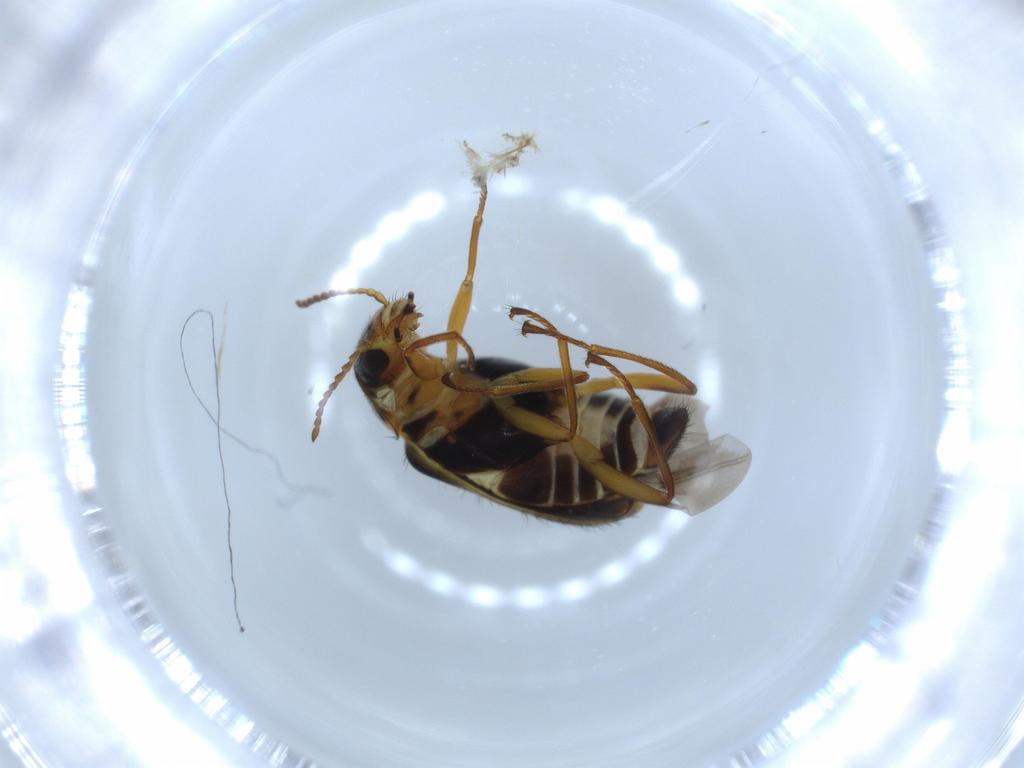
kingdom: Animalia
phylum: Arthropoda
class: Insecta
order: Coleoptera
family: Melyridae
